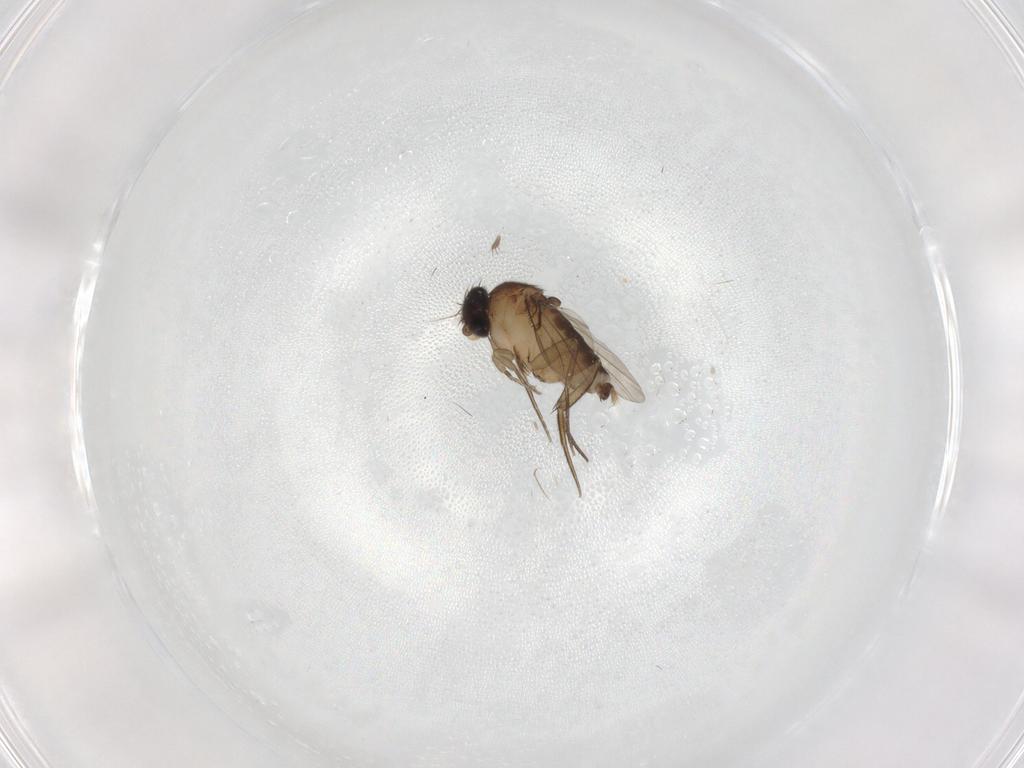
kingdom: Animalia
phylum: Arthropoda
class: Insecta
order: Diptera
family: Phoridae
